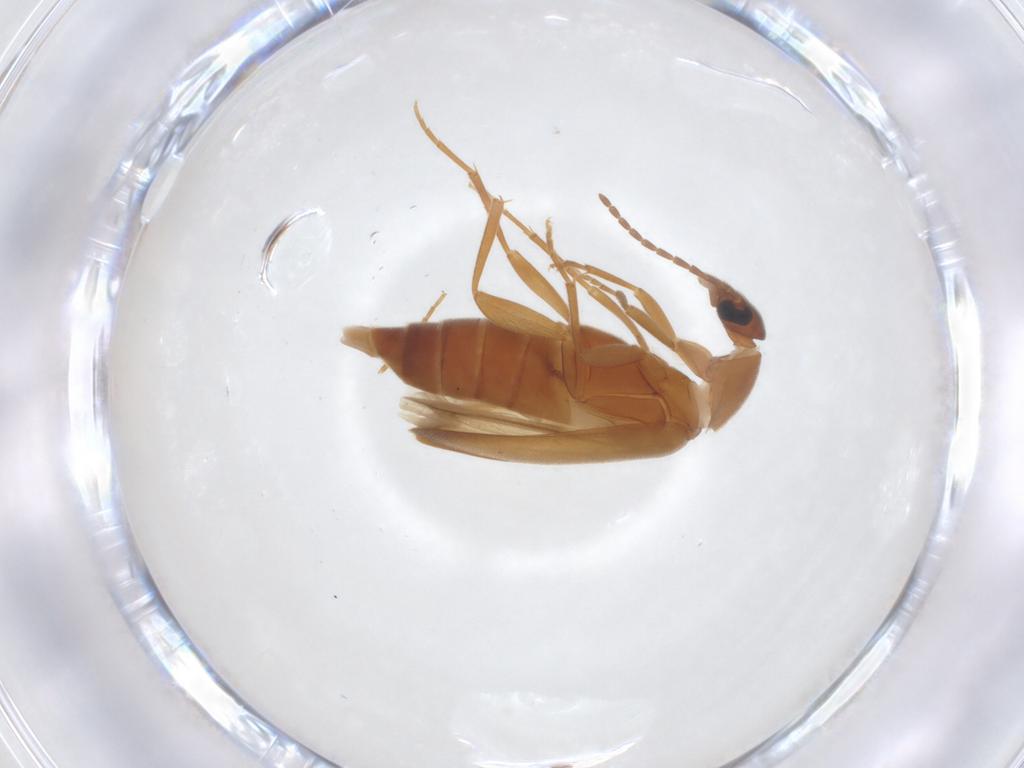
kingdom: Animalia
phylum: Arthropoda
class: Insecta
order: Coleoptera
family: Scraptiidae
